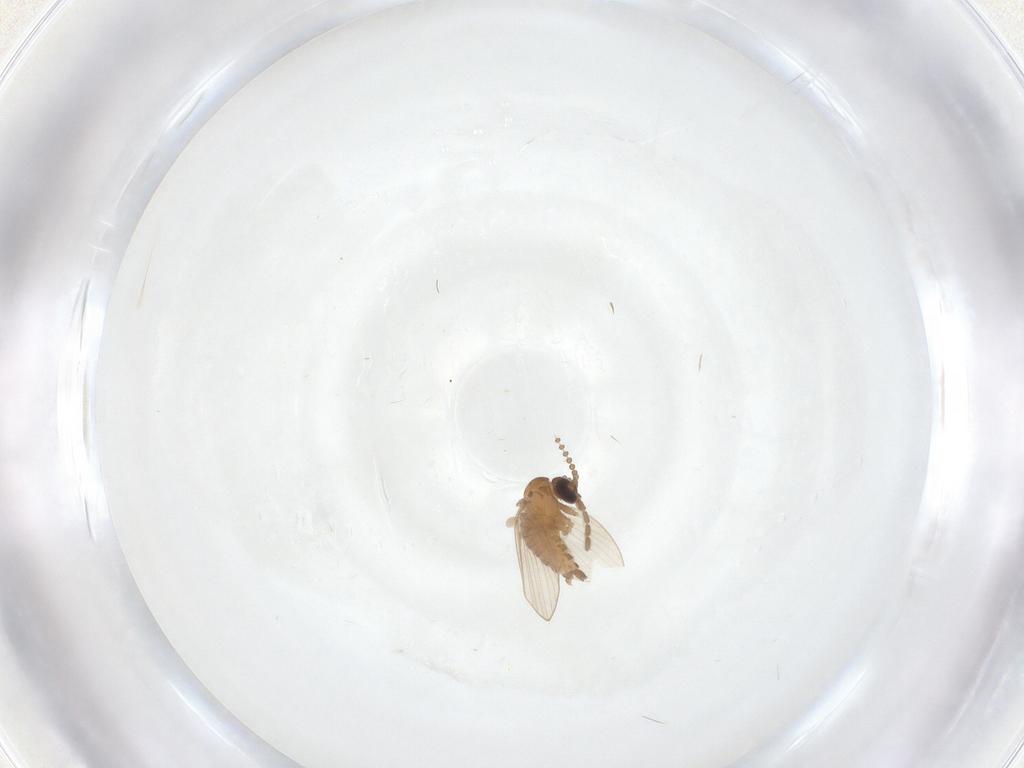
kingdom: Animalia
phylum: Arthropoda
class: Insecta
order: Diptera
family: Psychodidae
